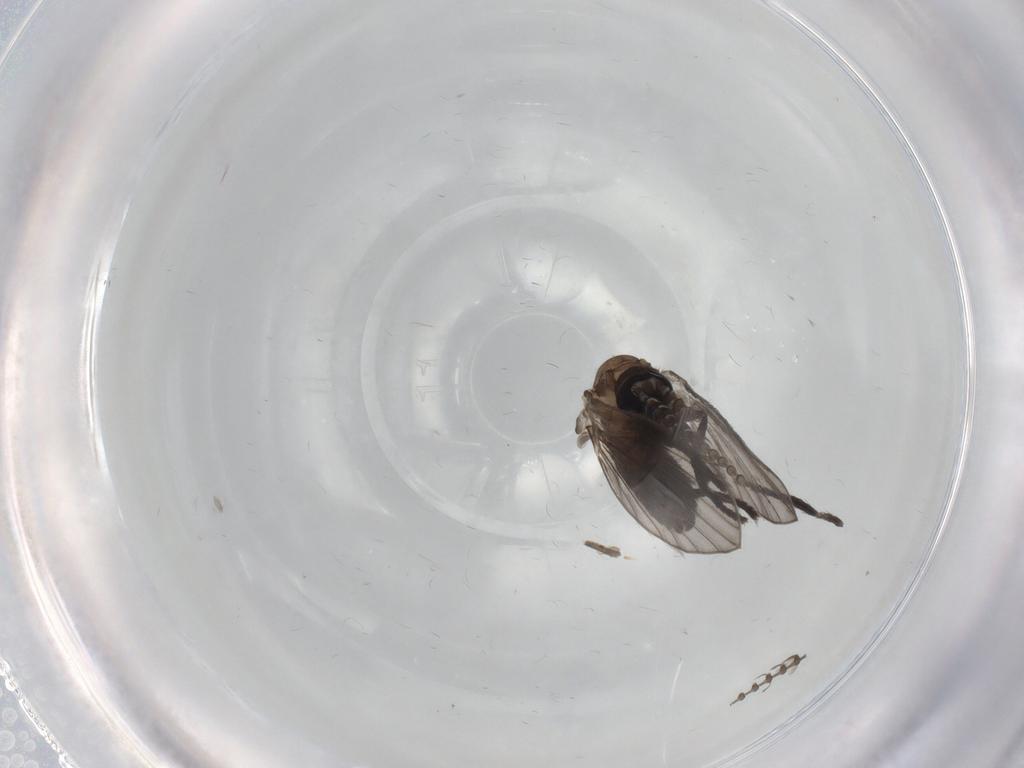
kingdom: Animalia
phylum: Arthropoda
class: Insecta
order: Diptera
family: Psychodidae
